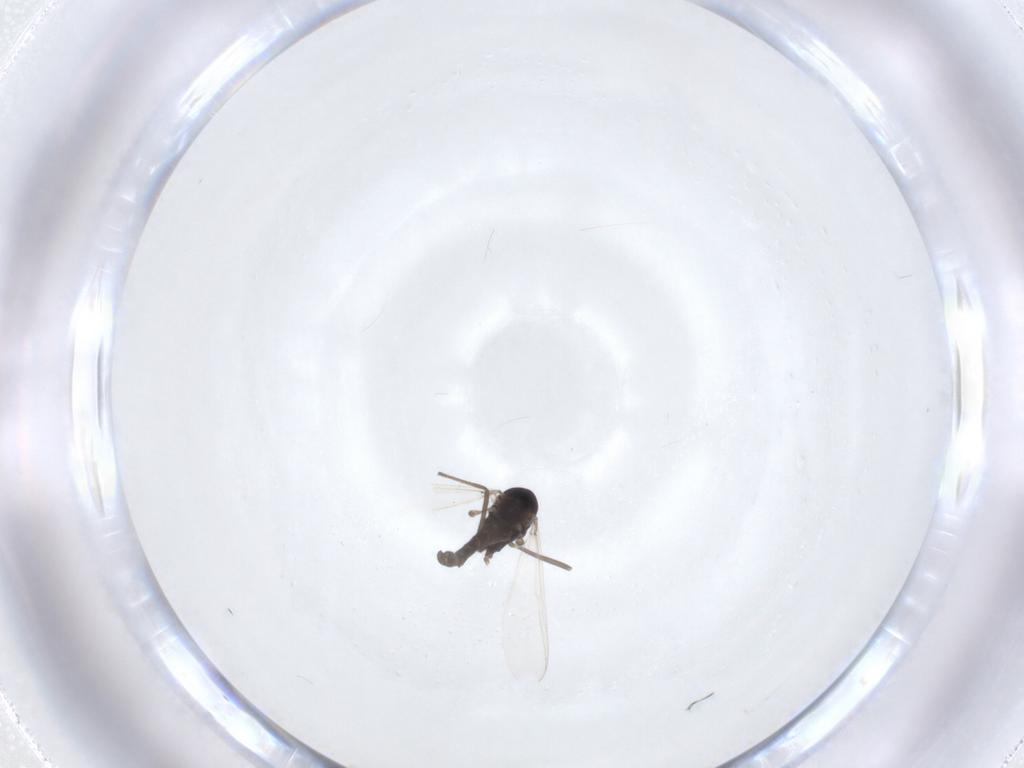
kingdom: Animalia
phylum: Arthropoda
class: Insecta
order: Diptera
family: Chironomidae
